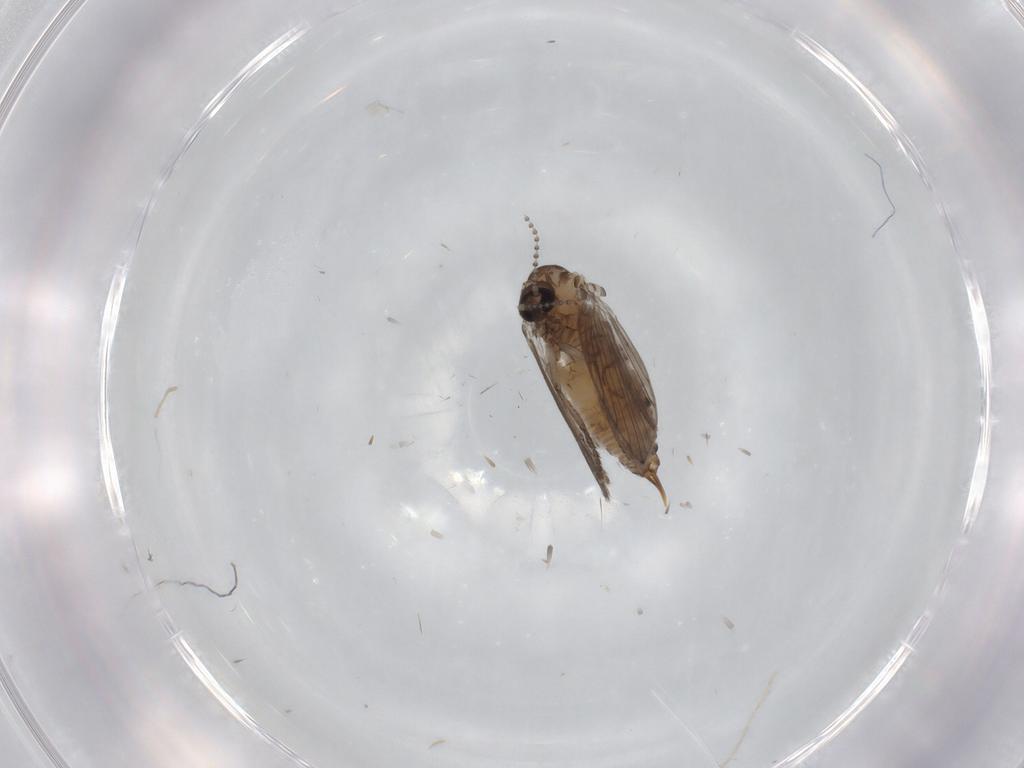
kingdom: Animalia
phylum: Arthropoda
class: Insecta
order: Diptera
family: Psychodidae
